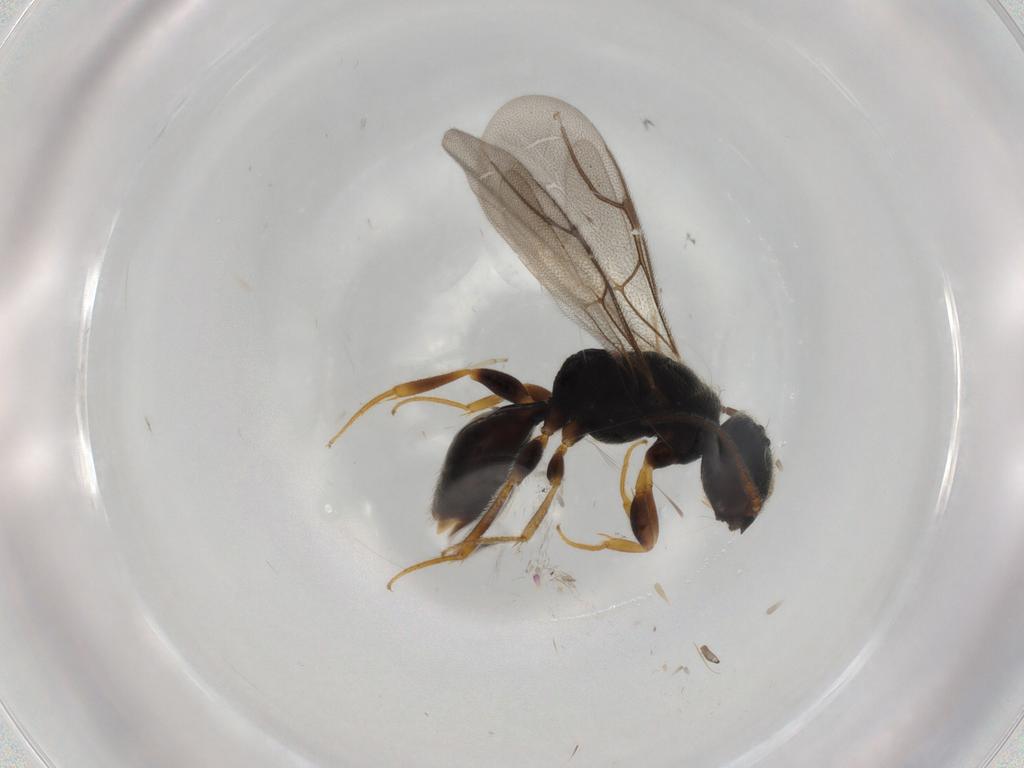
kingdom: Animalia
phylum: Arthropoda
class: Insecta
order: Hymenoptera
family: Bethylidae
